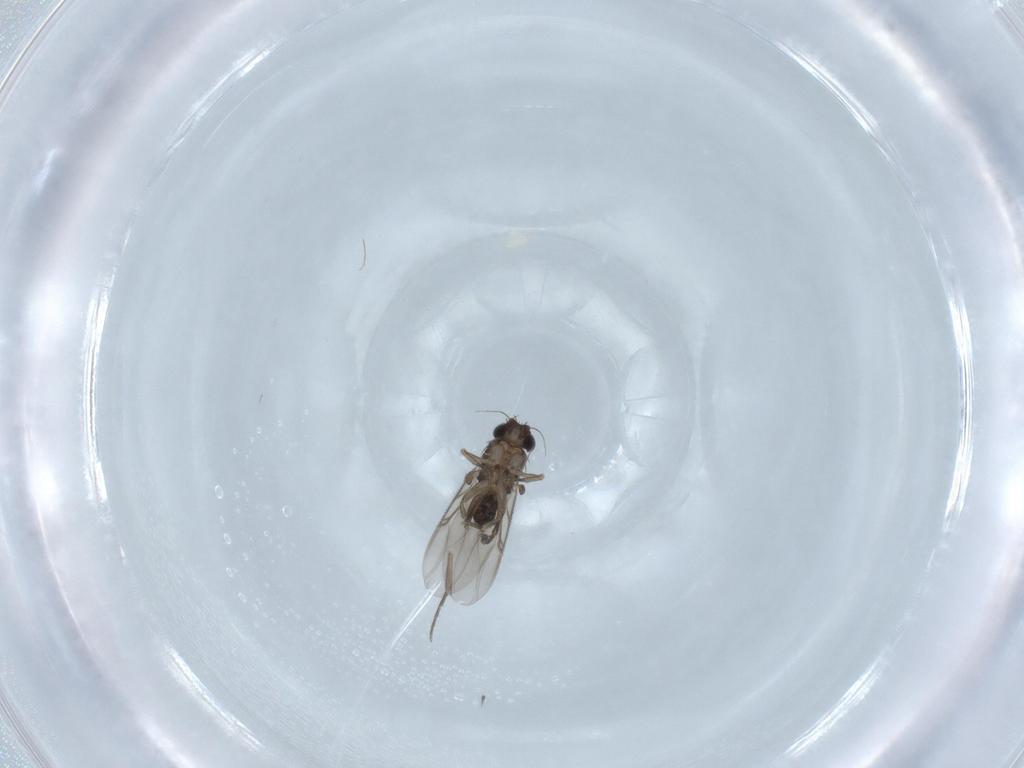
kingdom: Animalia
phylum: Arthropoda
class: Insecta
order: Diptera
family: Phoridae
